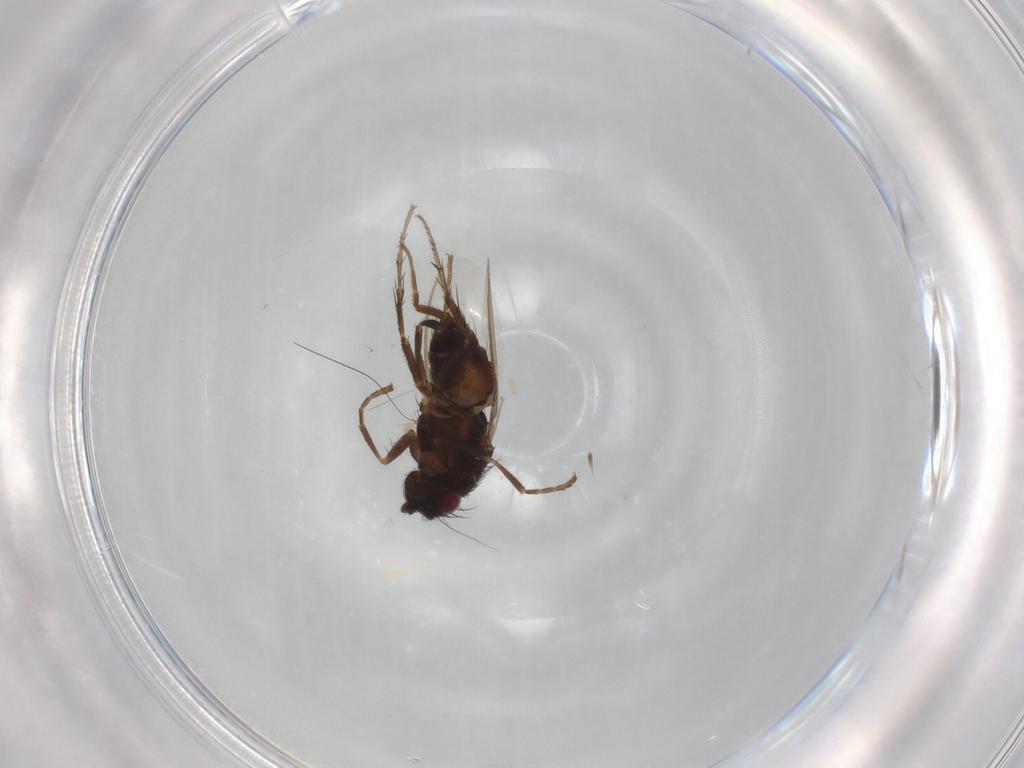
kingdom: Animalia
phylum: Arthropoda
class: Insecta
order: Diptera
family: Sphaeroceridae
